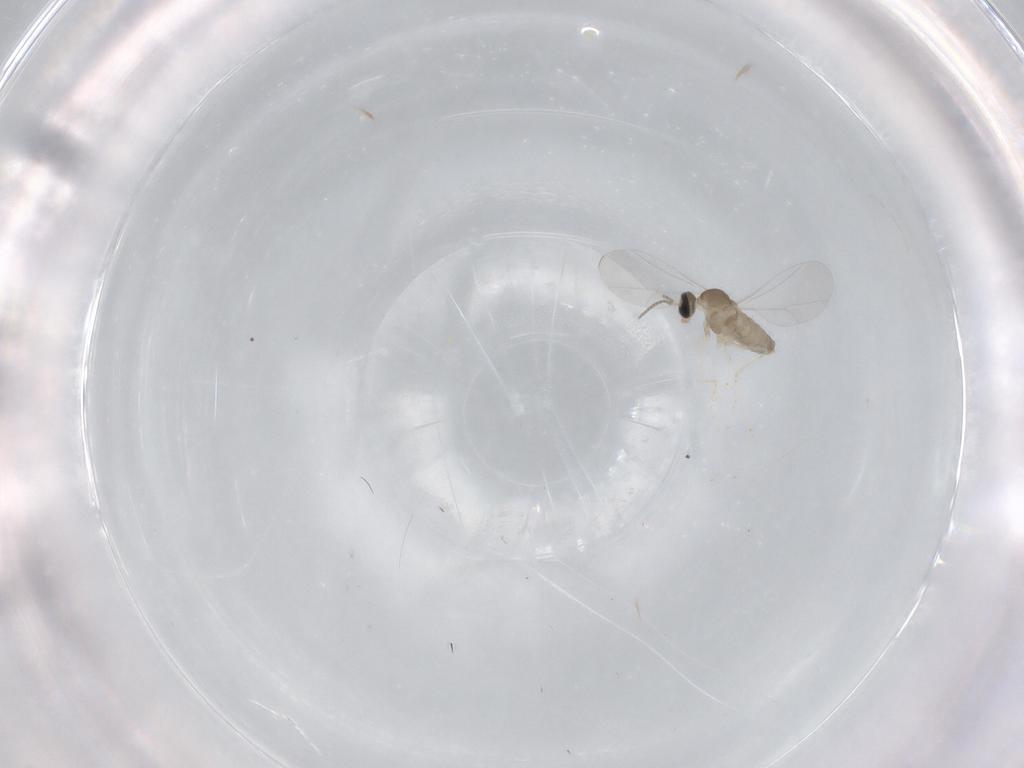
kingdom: Animalia
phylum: Arthropoda
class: Insecta
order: Diptera
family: Cecidomyiidae
